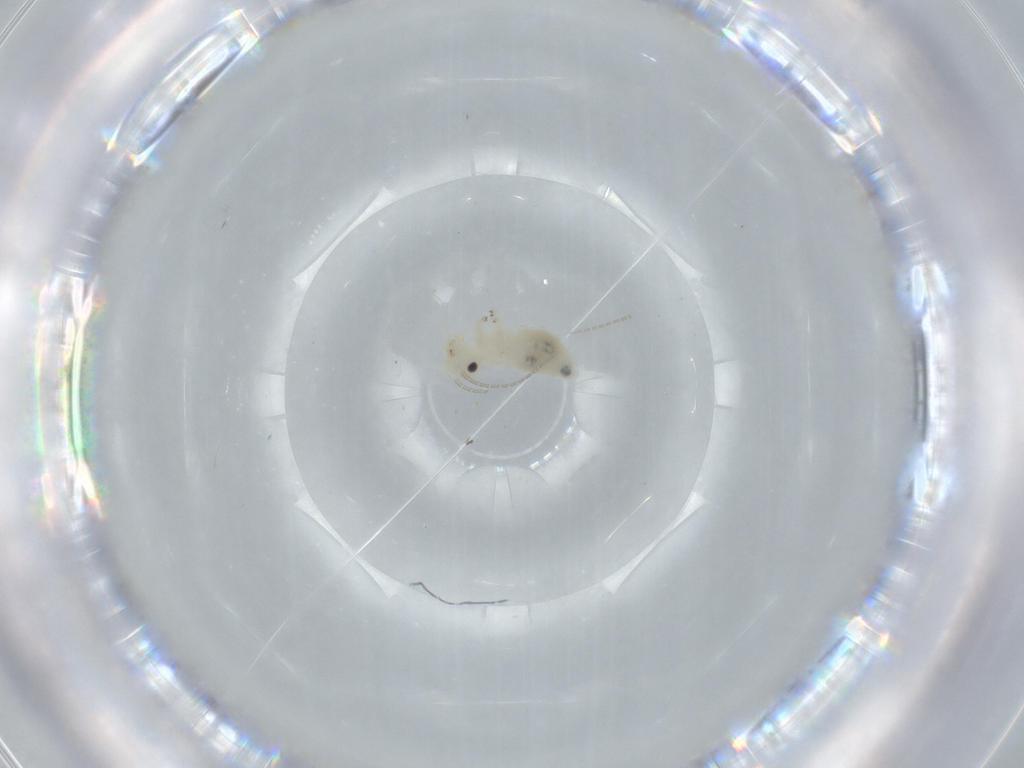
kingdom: Animalia
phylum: Arthropoda
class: Insecta
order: Psocodea
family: Caeciliusidae
